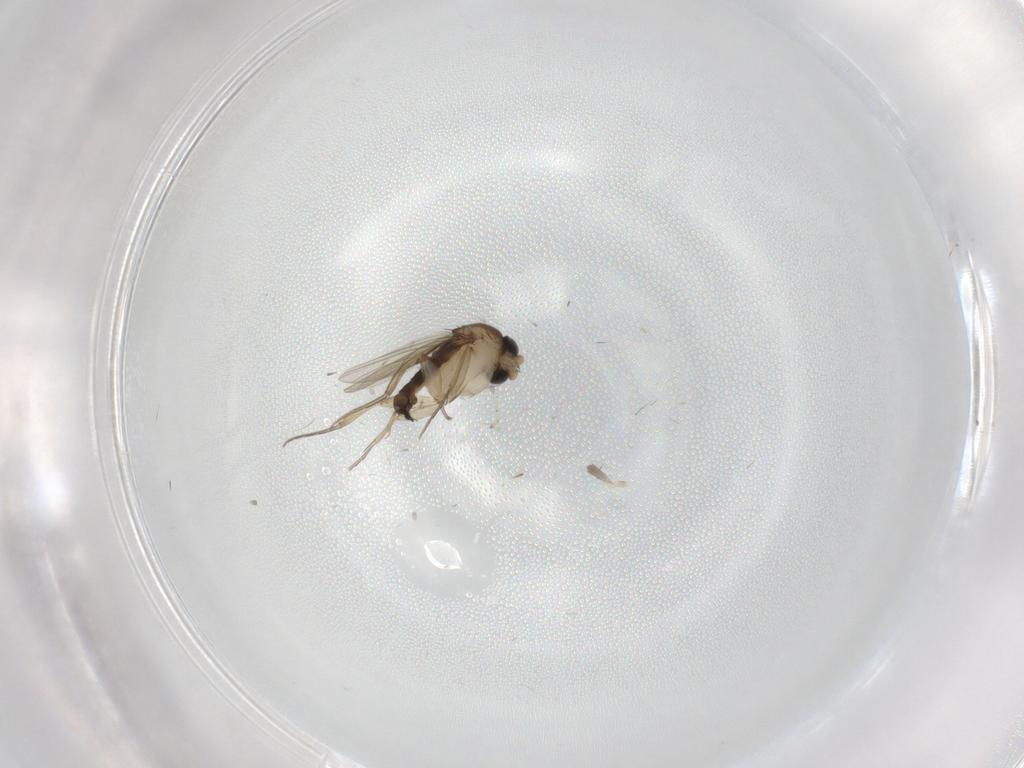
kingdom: Animalia
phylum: Arthropoda
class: Insecta
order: Diptera
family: Phoridae
